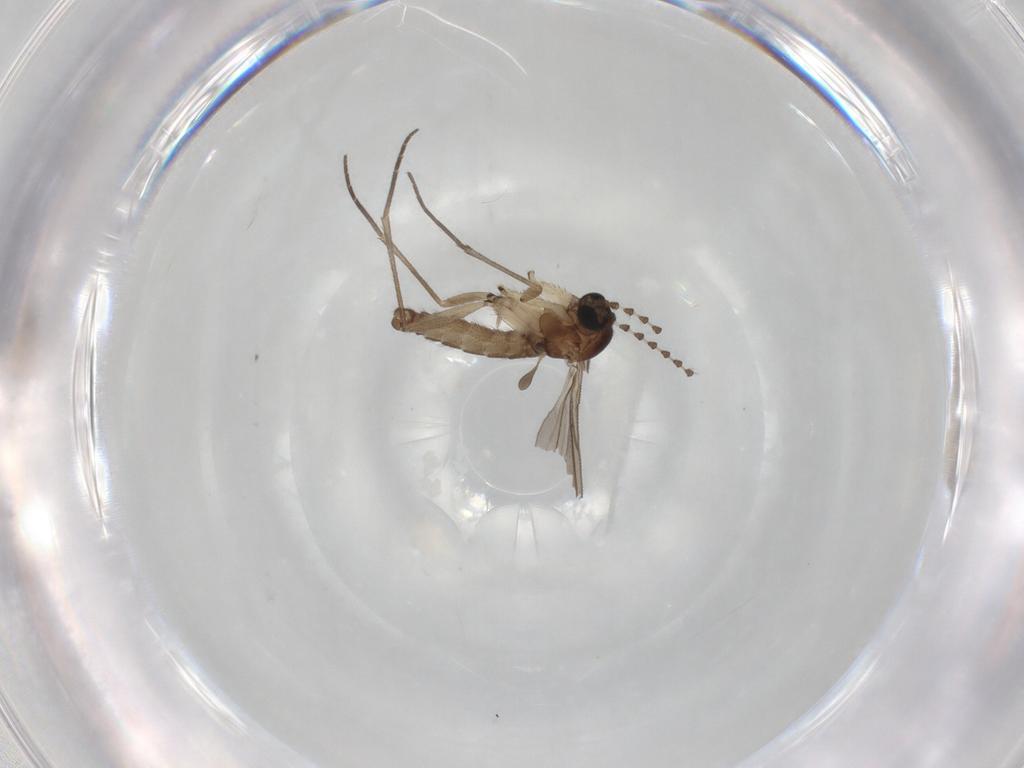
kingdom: Animalia
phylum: Arthropoda
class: Insecta
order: Diptera
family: Sciaridae
